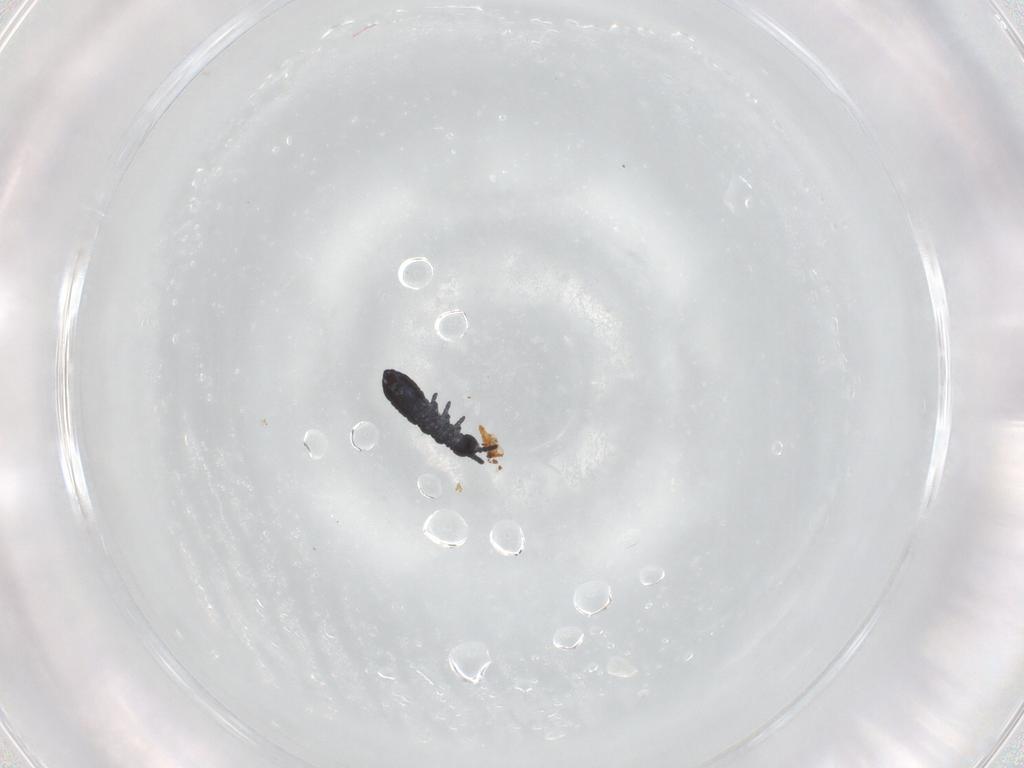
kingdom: Animalia
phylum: Arthropoda
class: Collembola
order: Poduromorpha
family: Hypogastruridae
